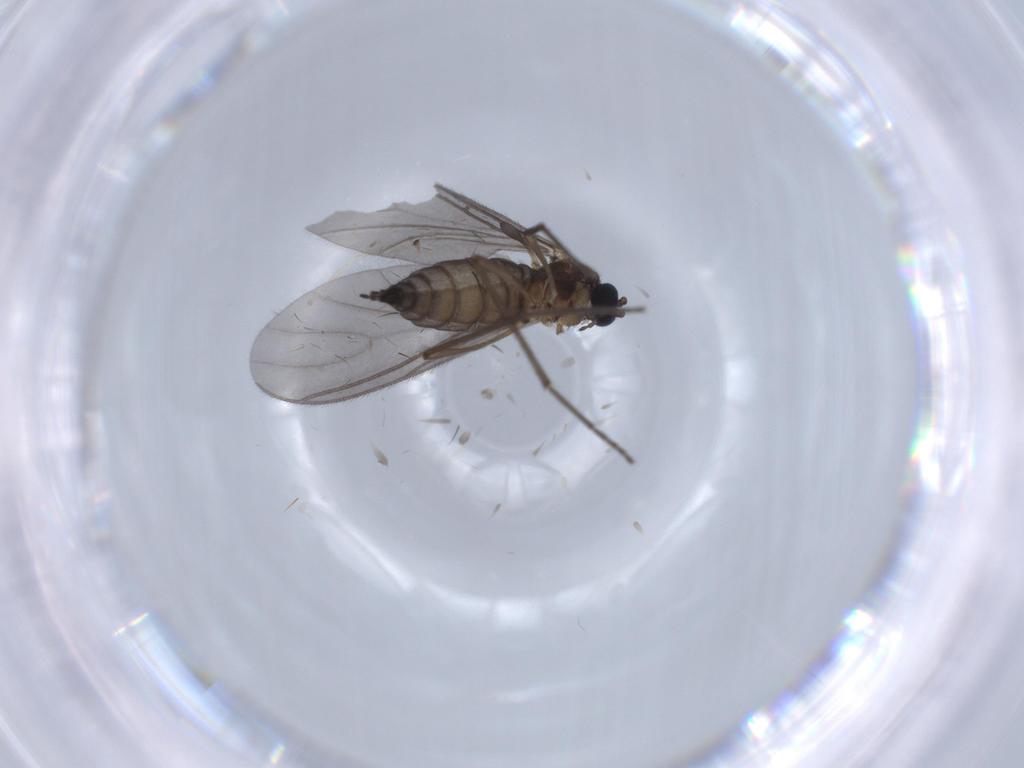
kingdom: Animalia
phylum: Arthropoda
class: Insecta
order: Diptera
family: Sciaridae
